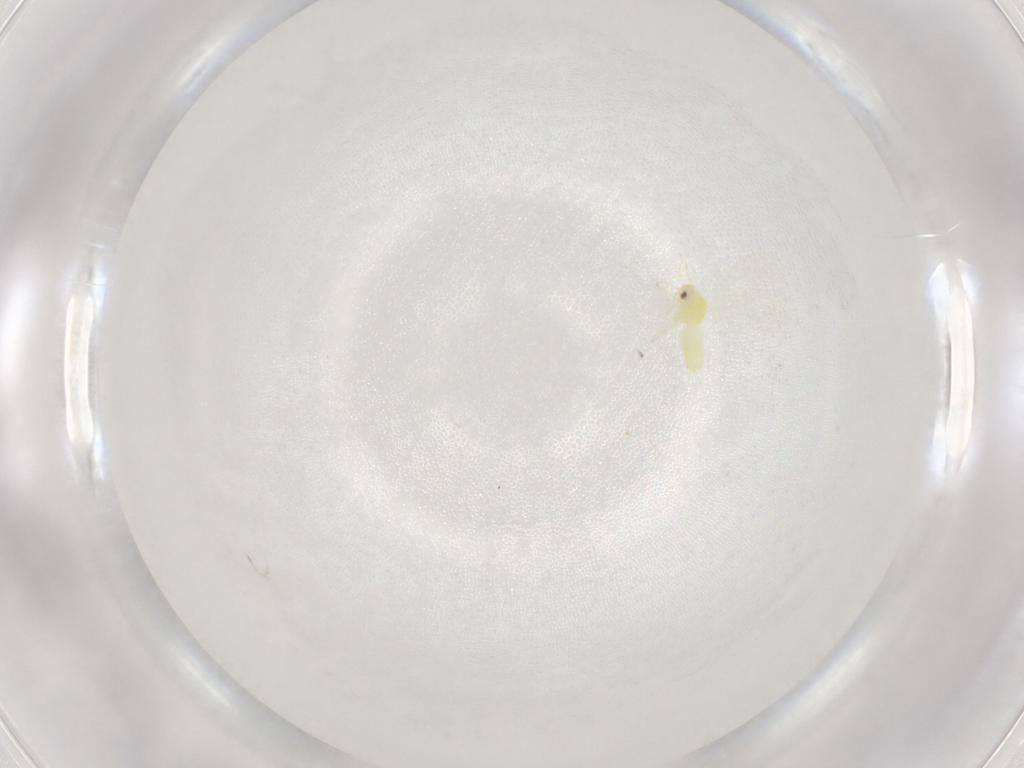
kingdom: Animalia
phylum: Arthropoda
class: Insecta
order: Hemiptera
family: Aleyrodidae
